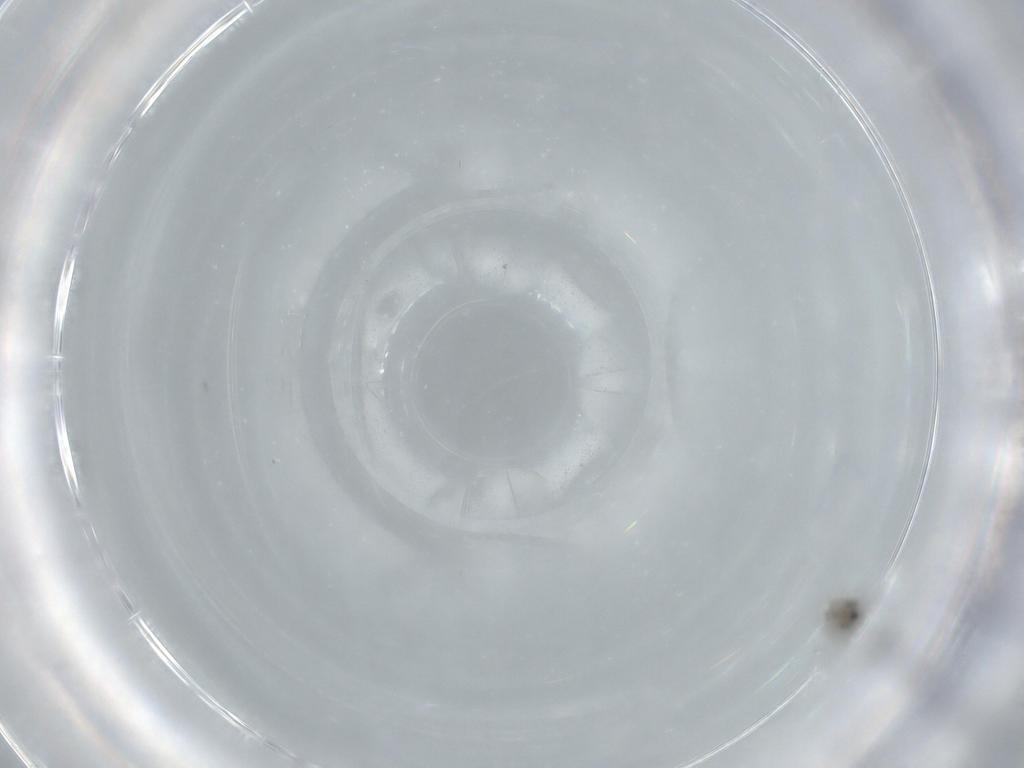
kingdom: Animalia
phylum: Arthropoda
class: Insecta
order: Diptera
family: Cecidomyiidae
